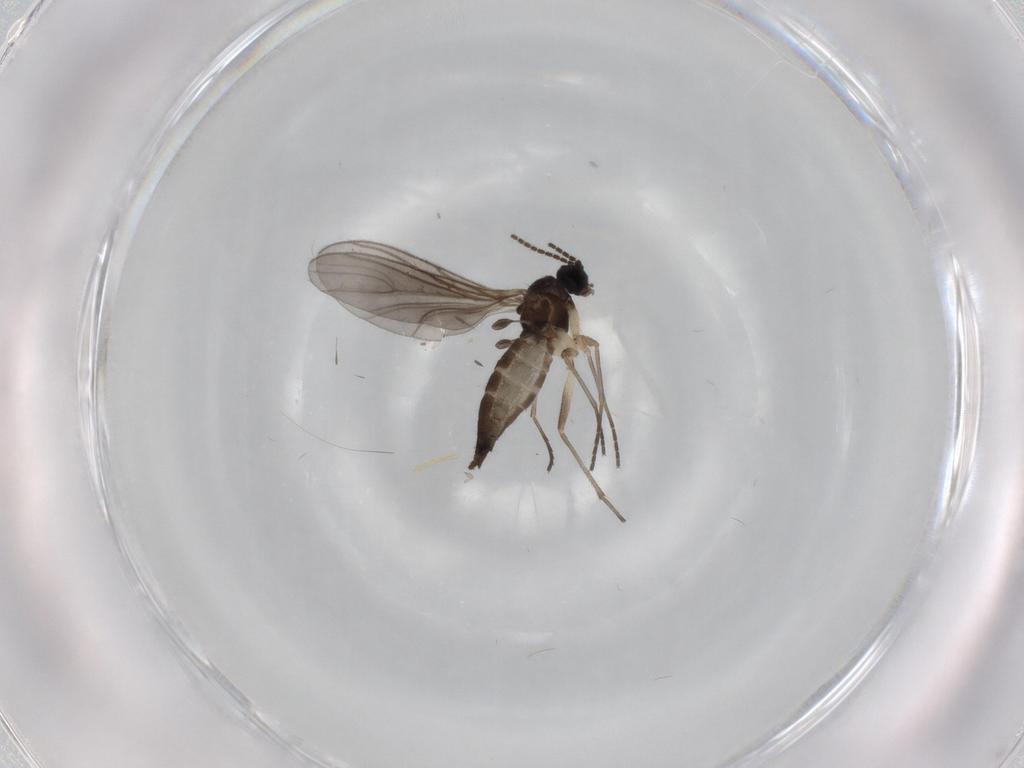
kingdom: Animalia
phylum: Arthropoda
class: Insecta
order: Diptera
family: Sciaridae
